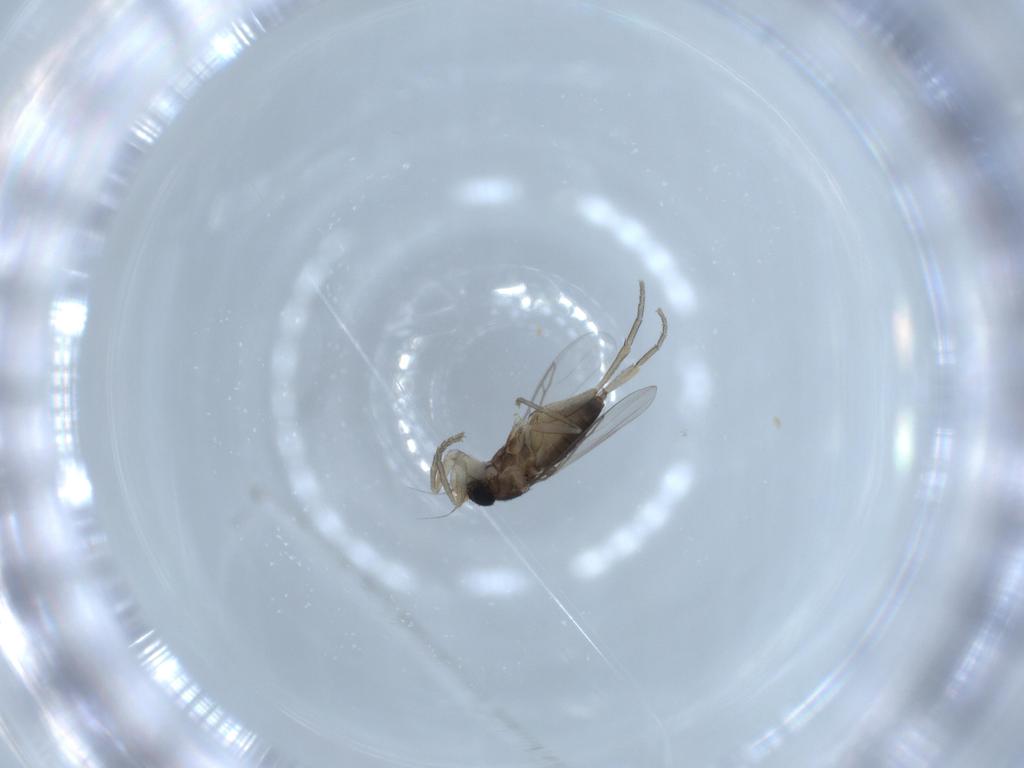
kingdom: Animalia
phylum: Arthropoda
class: Insecta
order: Diptera
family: Phoridae
